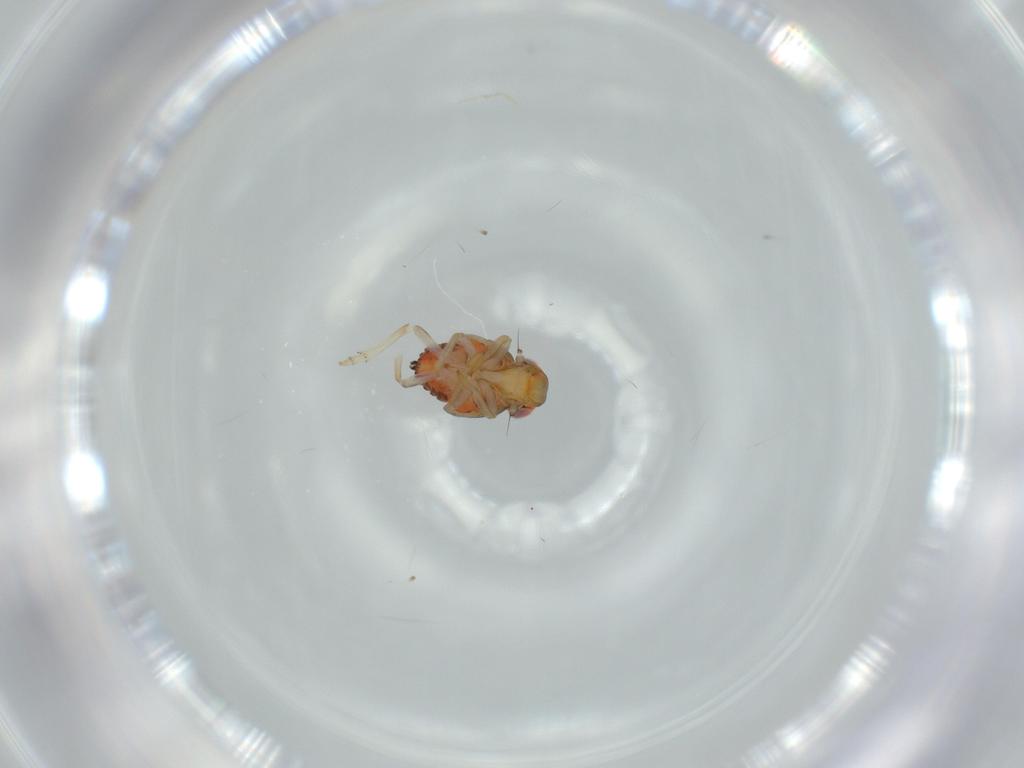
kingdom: Animalia
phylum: Arthropoda
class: Insecta
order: Hemiptera
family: Issidae
